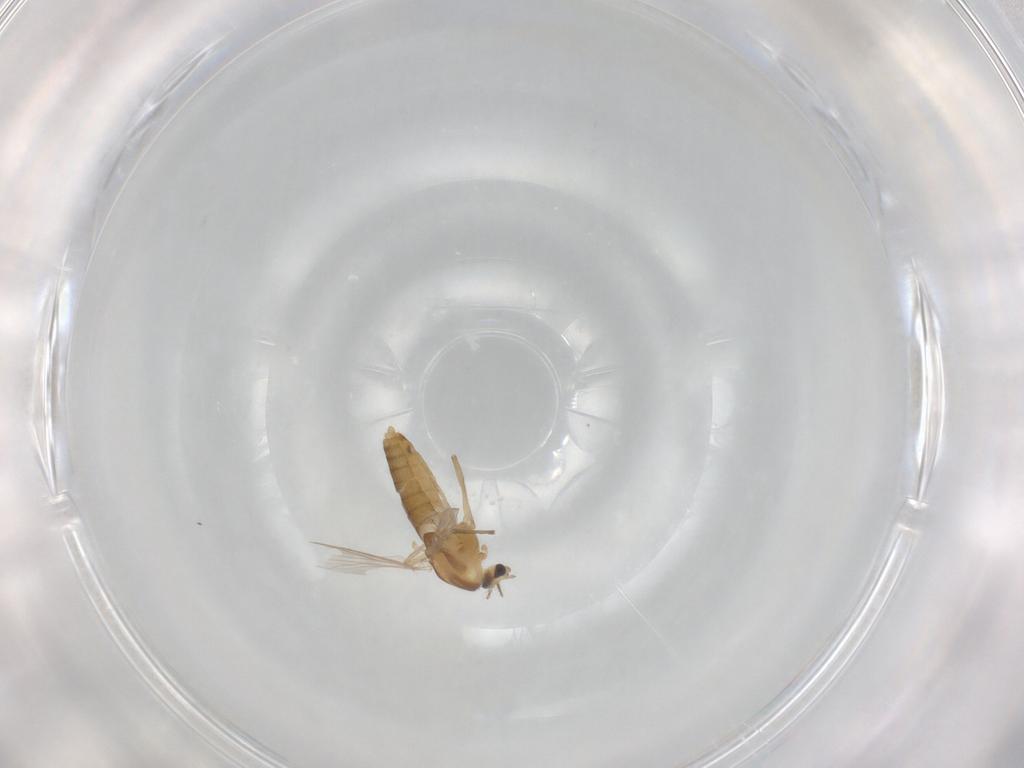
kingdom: Animalia
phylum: Arthropoda
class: Insecta
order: Diptera
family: Chironomidae
